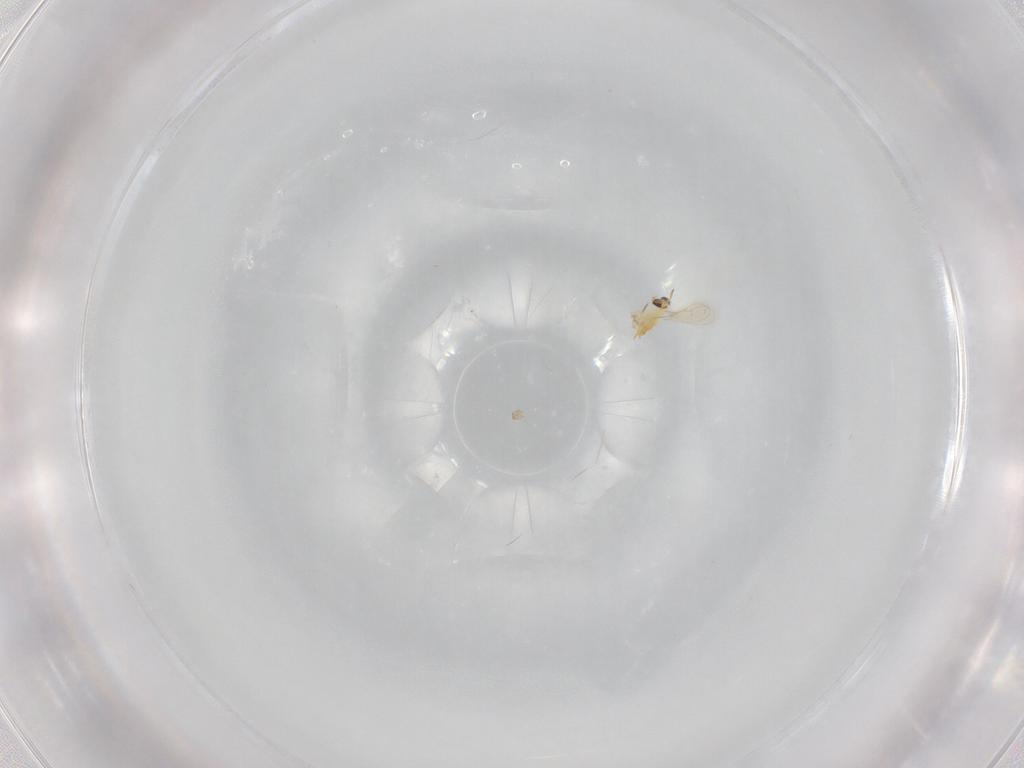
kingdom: Animalia
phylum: Arthropoda
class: Insecta
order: Hymenoptera
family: Aphelinidae
